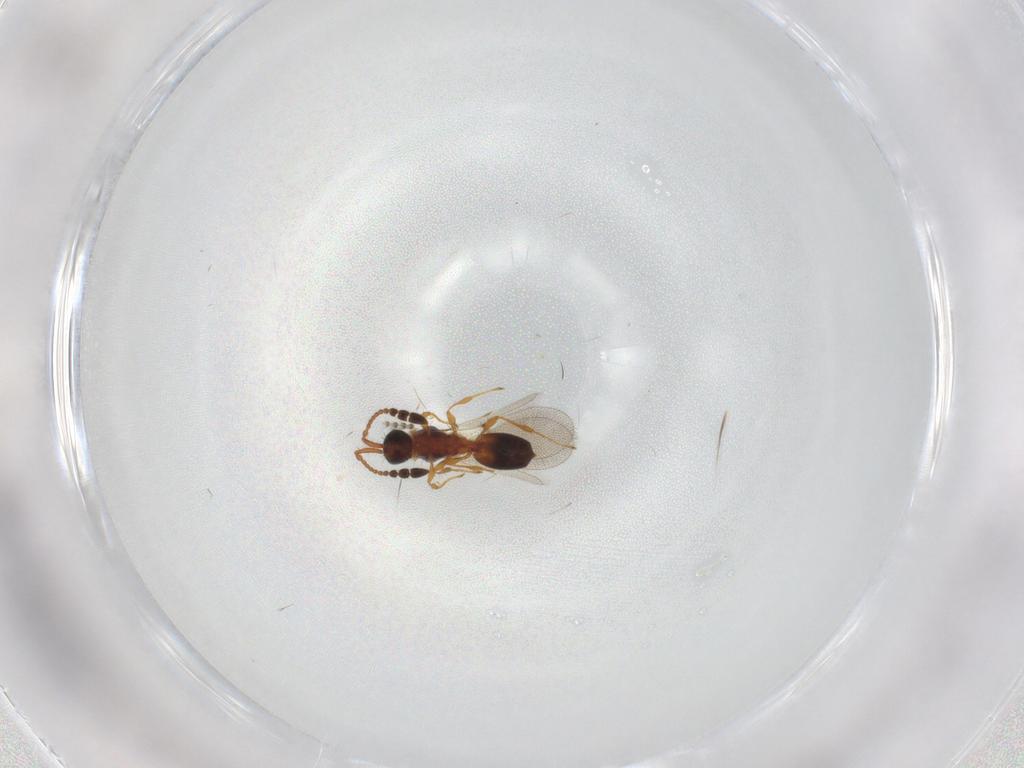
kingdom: Animalia
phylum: Arthropoda
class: Insecta
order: Hymenoptera
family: Diapriidae
